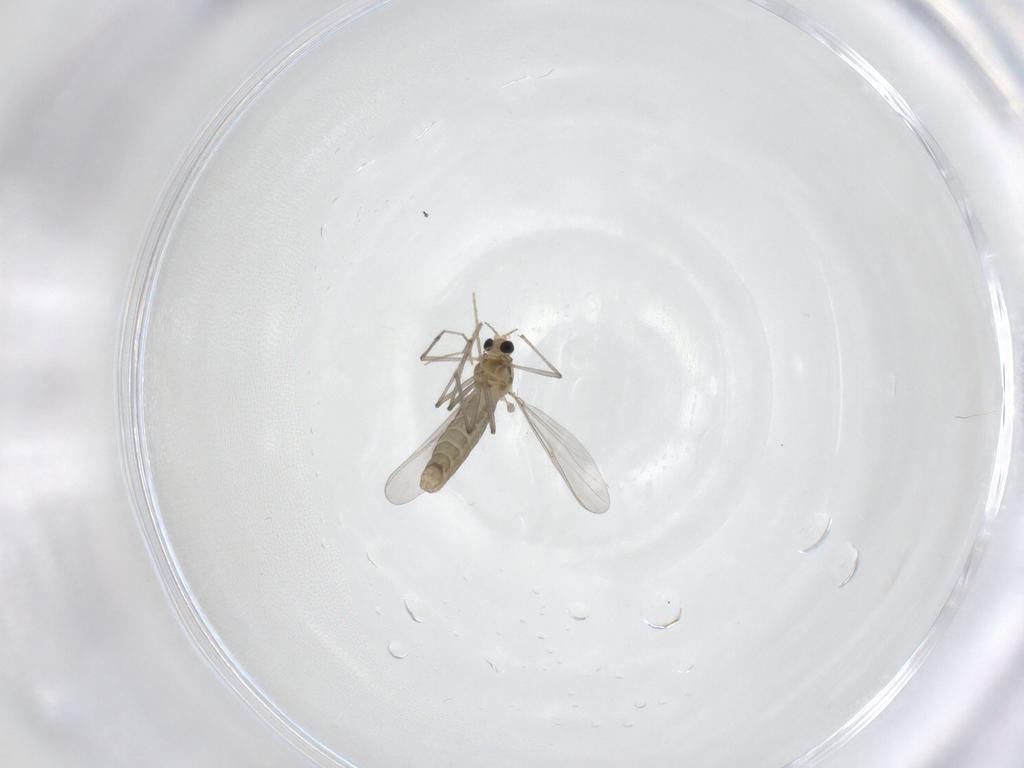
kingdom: Animalia
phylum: Arthropoda
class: Insecta
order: Diptera
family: Chironomidae
